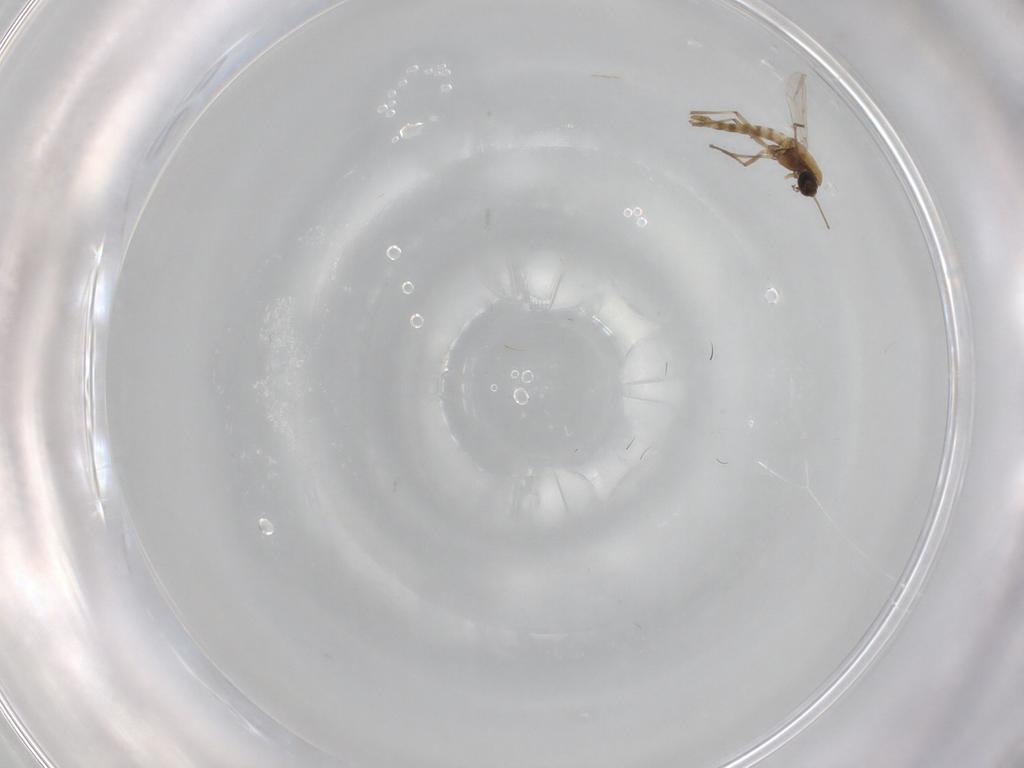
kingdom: Animalia
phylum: Arthropoda
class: Insecta
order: Diptera
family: Chironomidae
